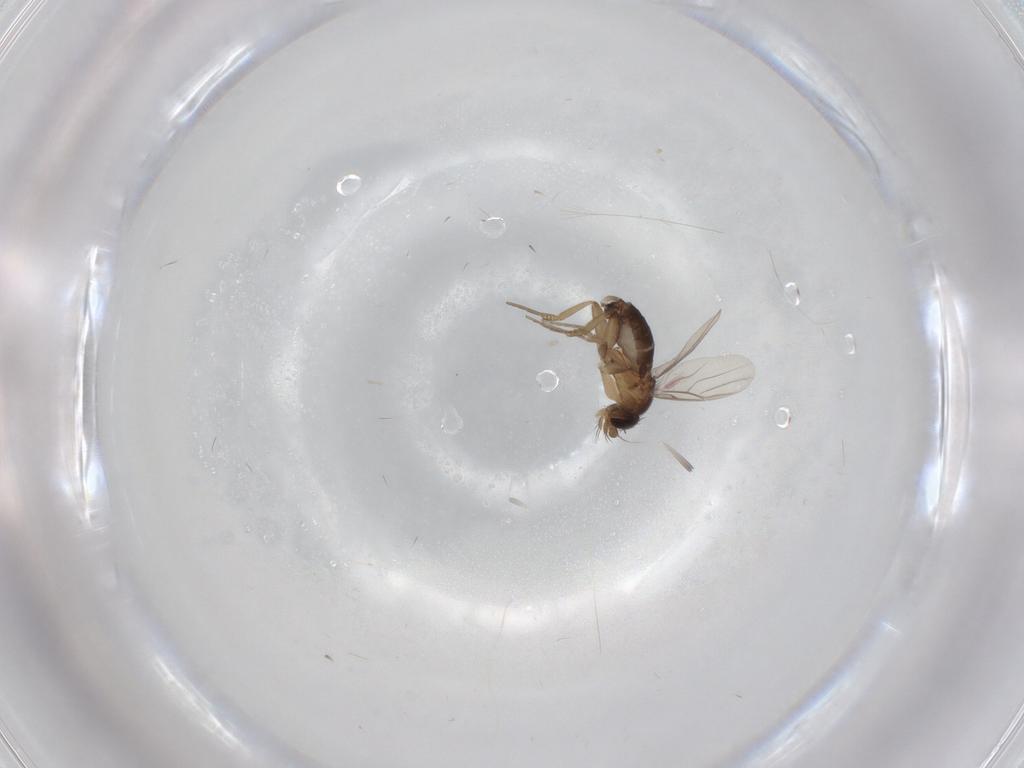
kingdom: Animalia
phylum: Arthropoda
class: Insecta
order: Diptera
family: Phoridae
